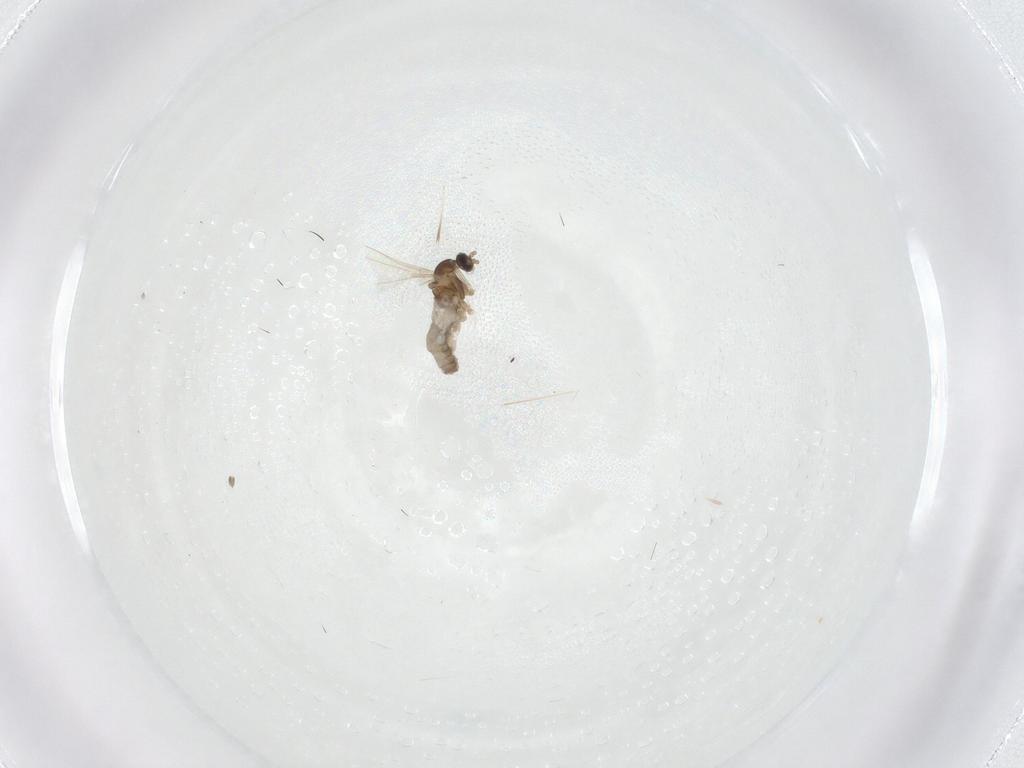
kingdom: Animalia
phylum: Arthropoda
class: Insecta
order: Diptera
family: Cecidomyiidae
